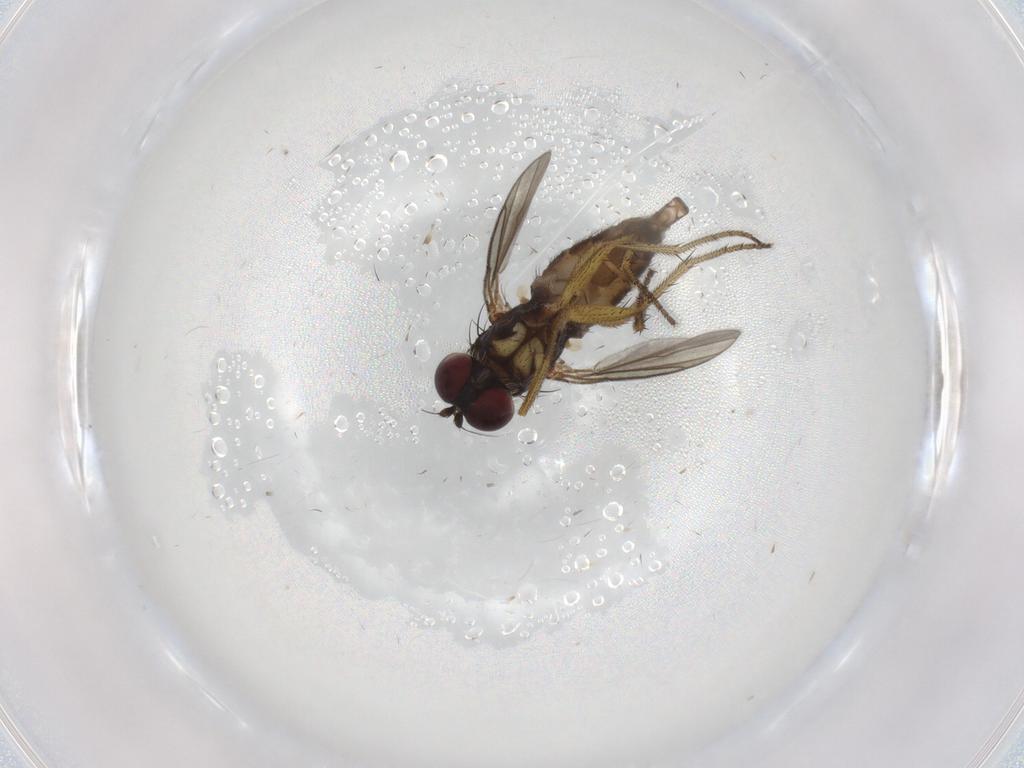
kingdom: Animalia
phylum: Arthropoda
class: Insecta
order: Diptera
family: Dolichopodidae
